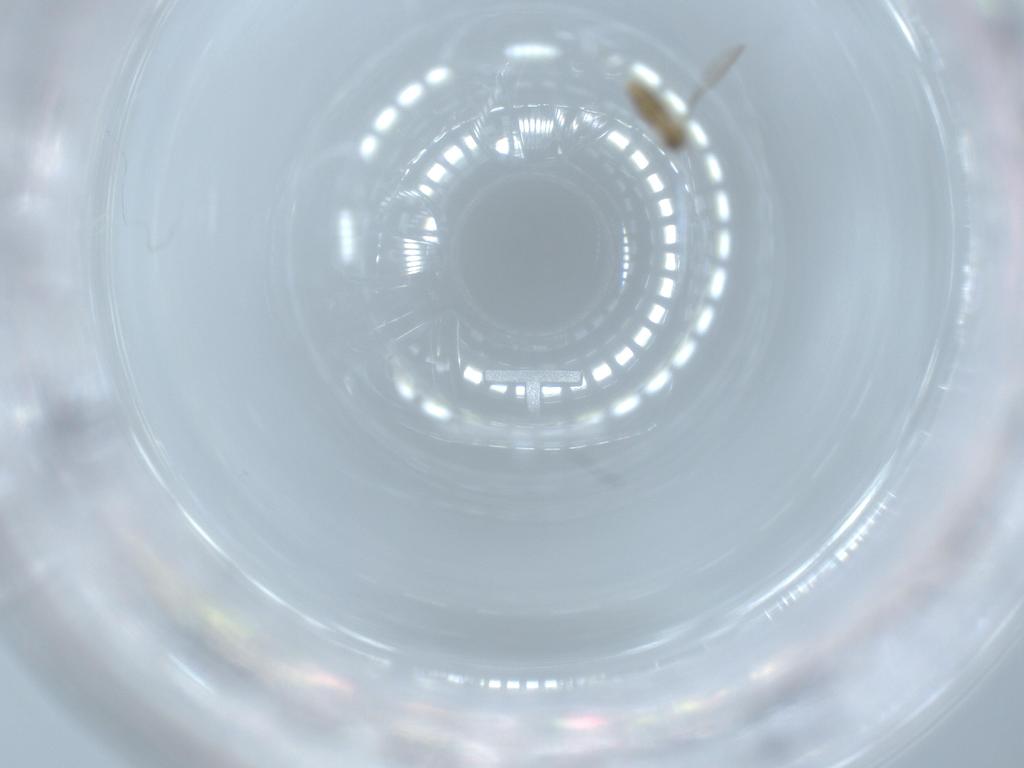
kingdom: Animalia
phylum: Arthropoda
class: Insecta
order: Diptera
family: Cecidomyiidae
